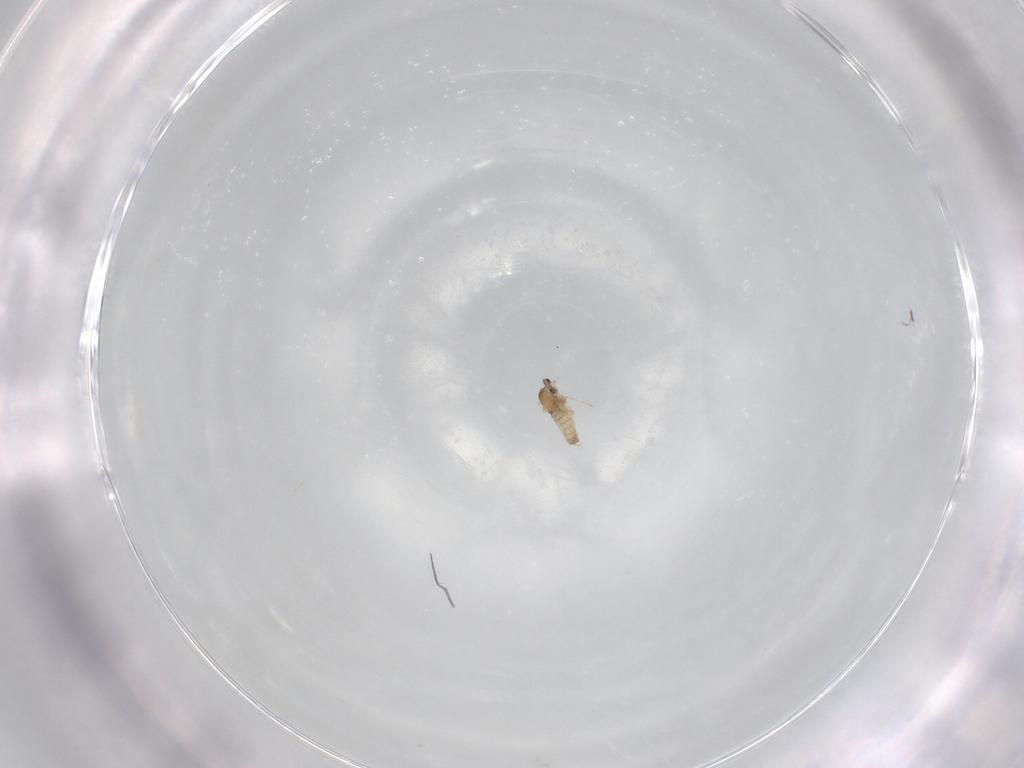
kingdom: Animalia
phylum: Arthropoda
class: Insecta
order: Diptera
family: Cecidomyiidae
